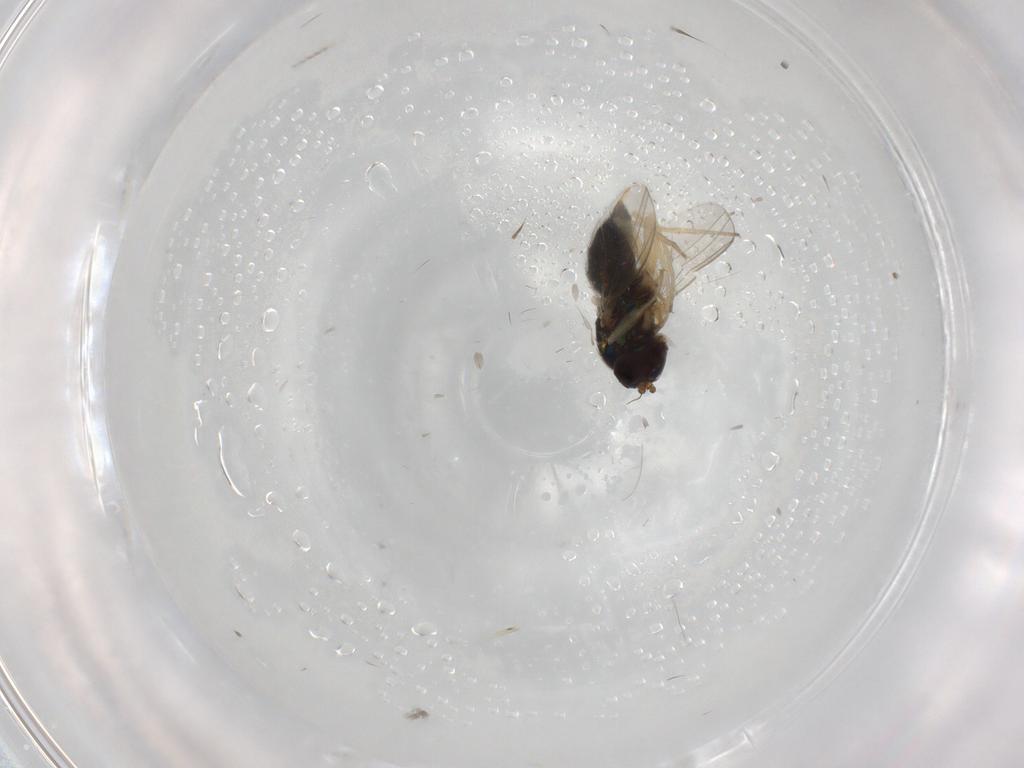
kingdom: Animalia
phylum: Arthropoda
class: Insecta
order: Diptera
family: Dolichopodidae
